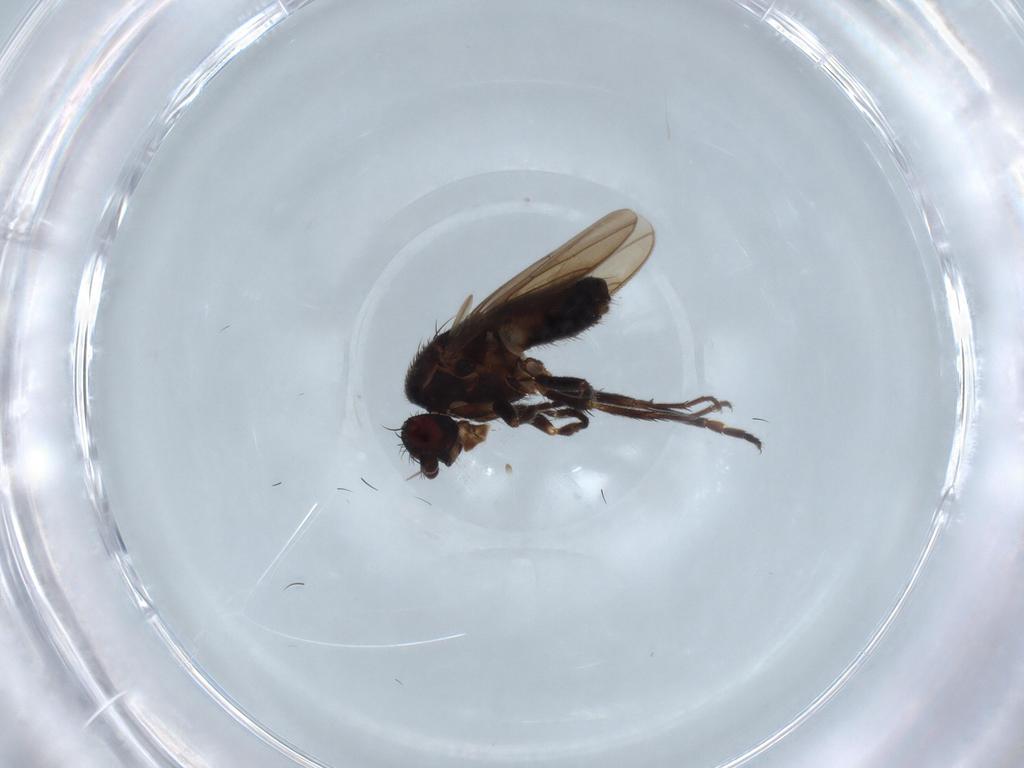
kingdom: Animalia
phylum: Arthropoda
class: Insecta
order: Diptera
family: Sphaeroceridae
